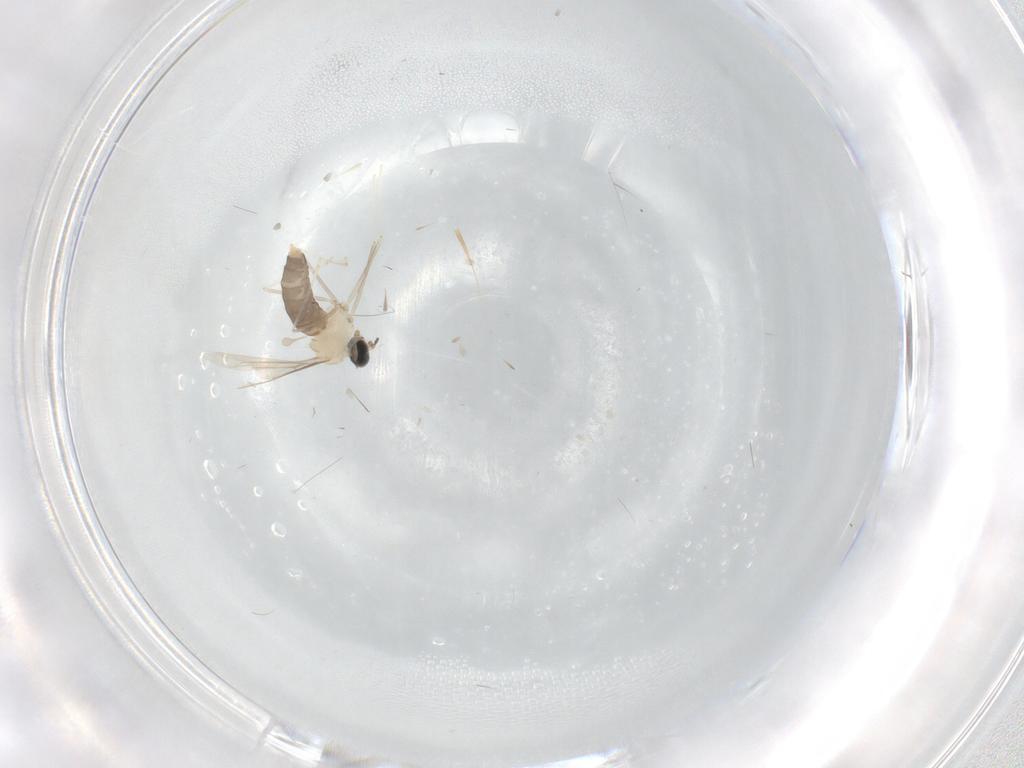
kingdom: Animalia
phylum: Arthropoda
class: Insecta
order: Diptera
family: Cecidomyiidae
